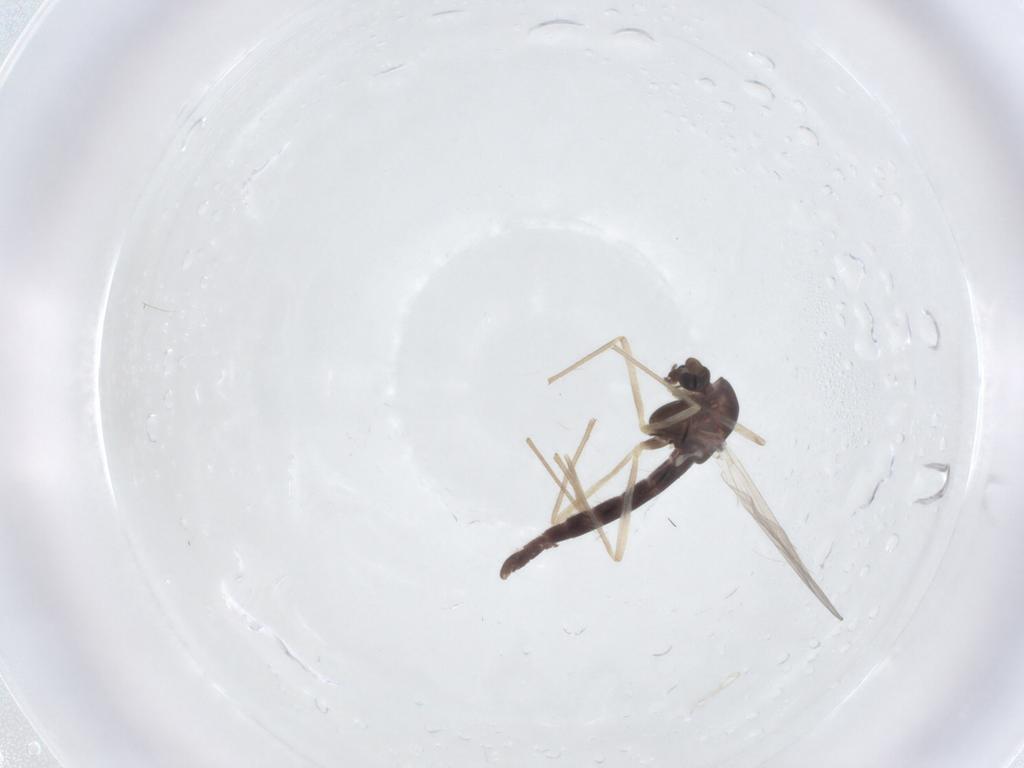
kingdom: Animalia
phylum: Arthropoda
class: Insecta
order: Diptera
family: Chironomidae
